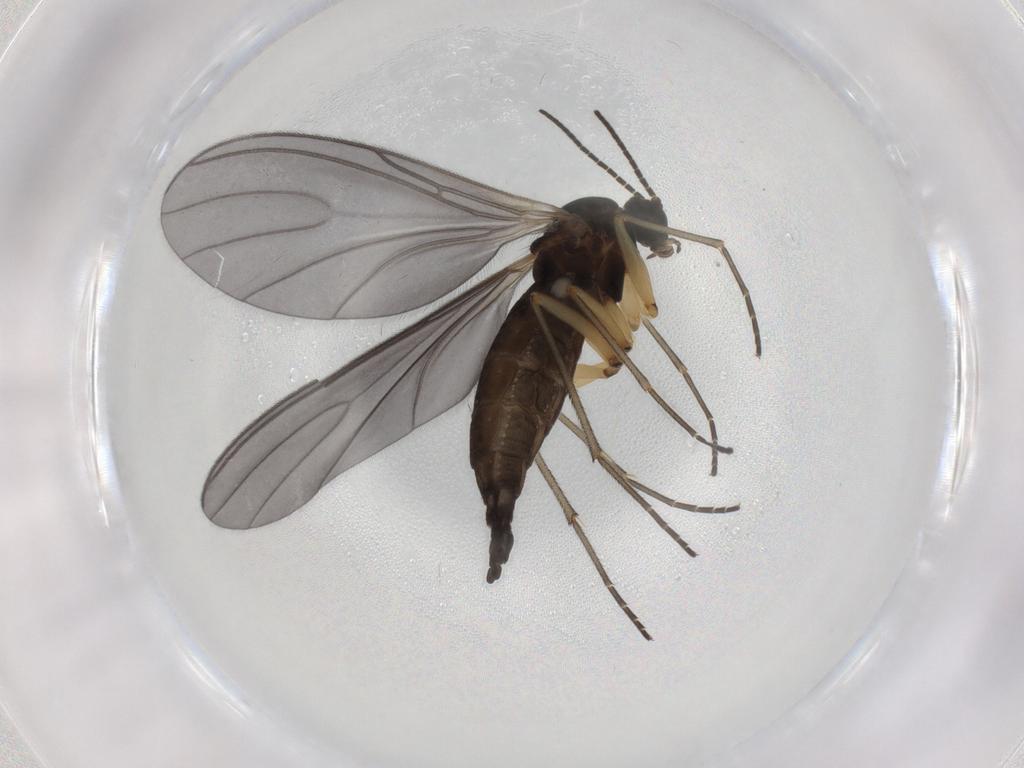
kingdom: Animalia
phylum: Arthropoda
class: Insecta
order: Diptera
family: Sciaridae
